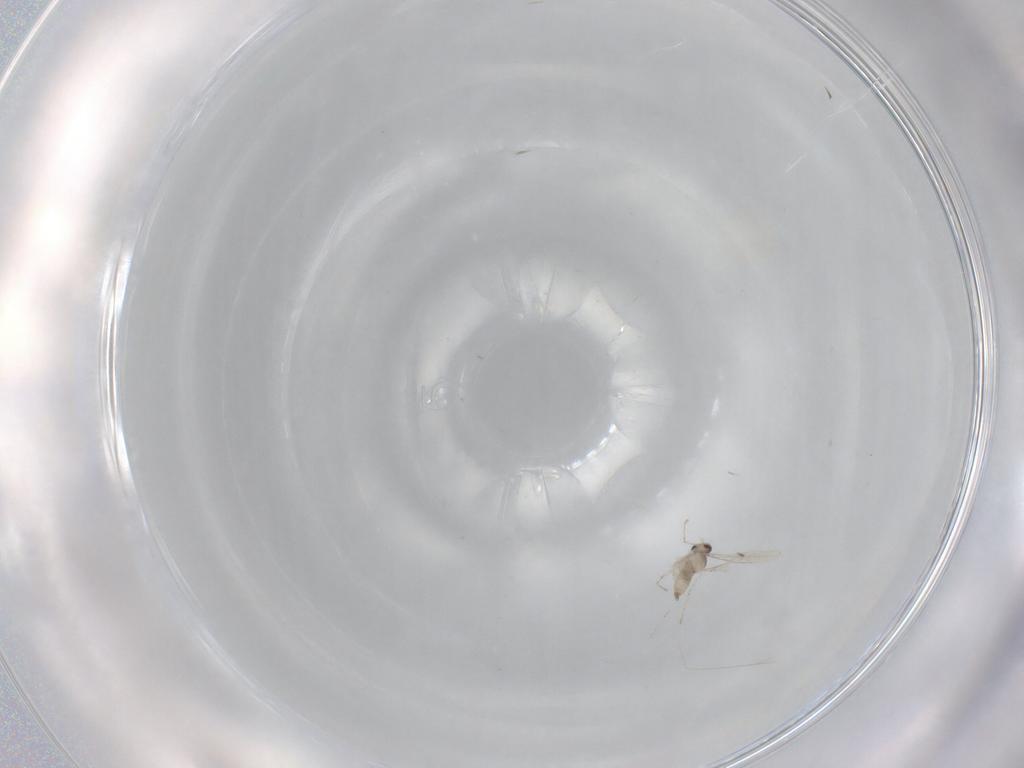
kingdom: Animalia
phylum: Arthropoda
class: Insecta
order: Diptera
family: Cecidomyiidae
